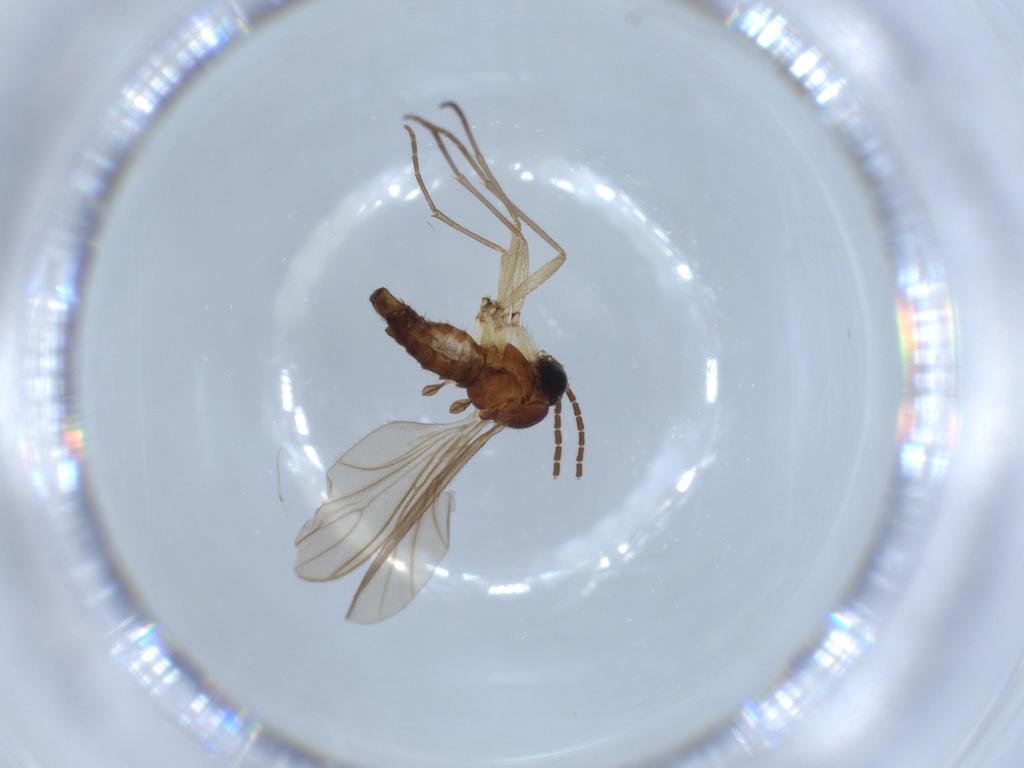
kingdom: Animalia
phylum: Arthropoda
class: Insecta
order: Diptera
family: Sciaridae
